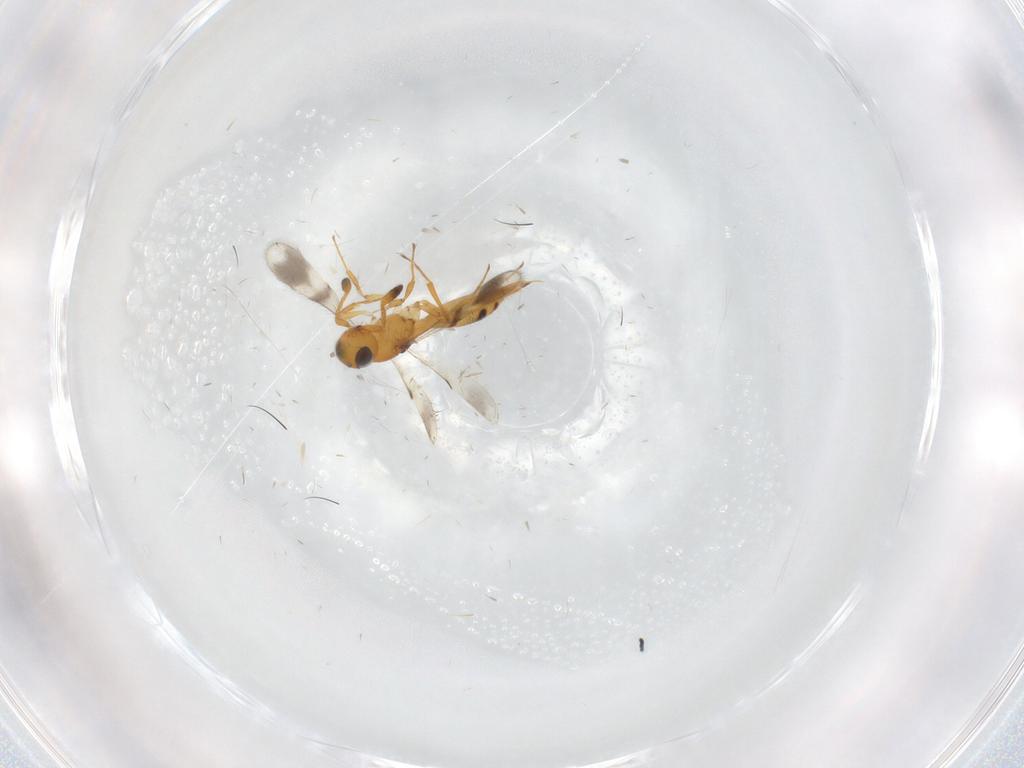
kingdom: Animalia
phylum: Arthropoda
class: Insecta
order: Hymenoptera
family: Scelionidae
